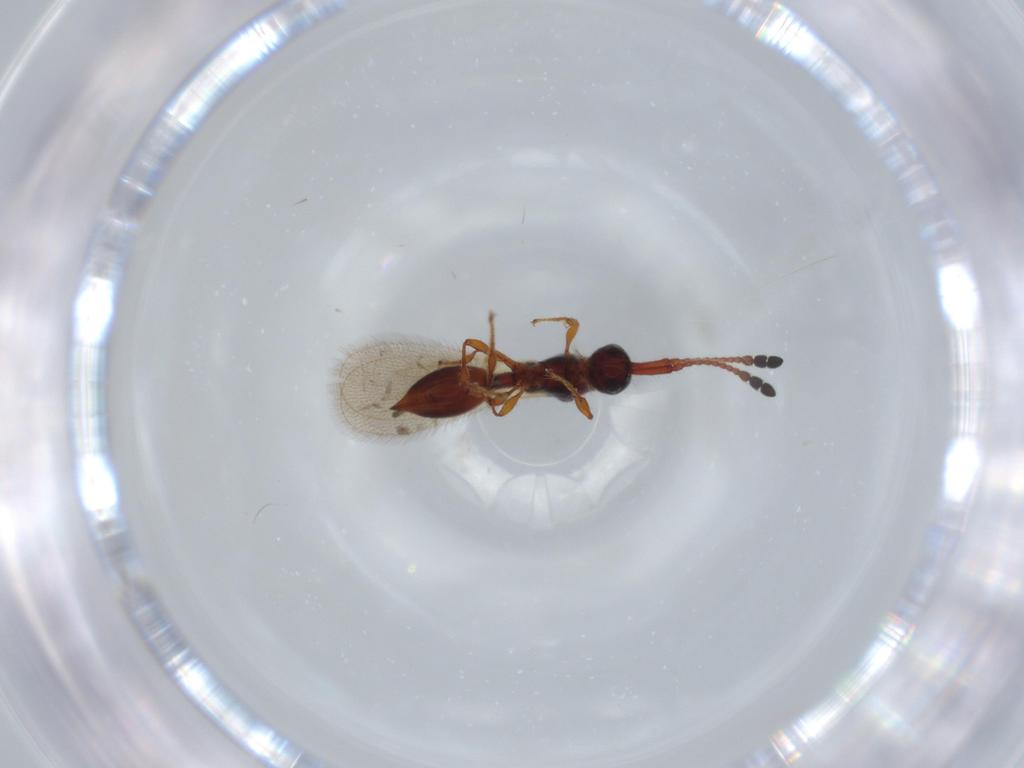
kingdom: Animalia
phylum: Arthropoda
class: Insecta
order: Hymenoptera
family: Diapriidae
